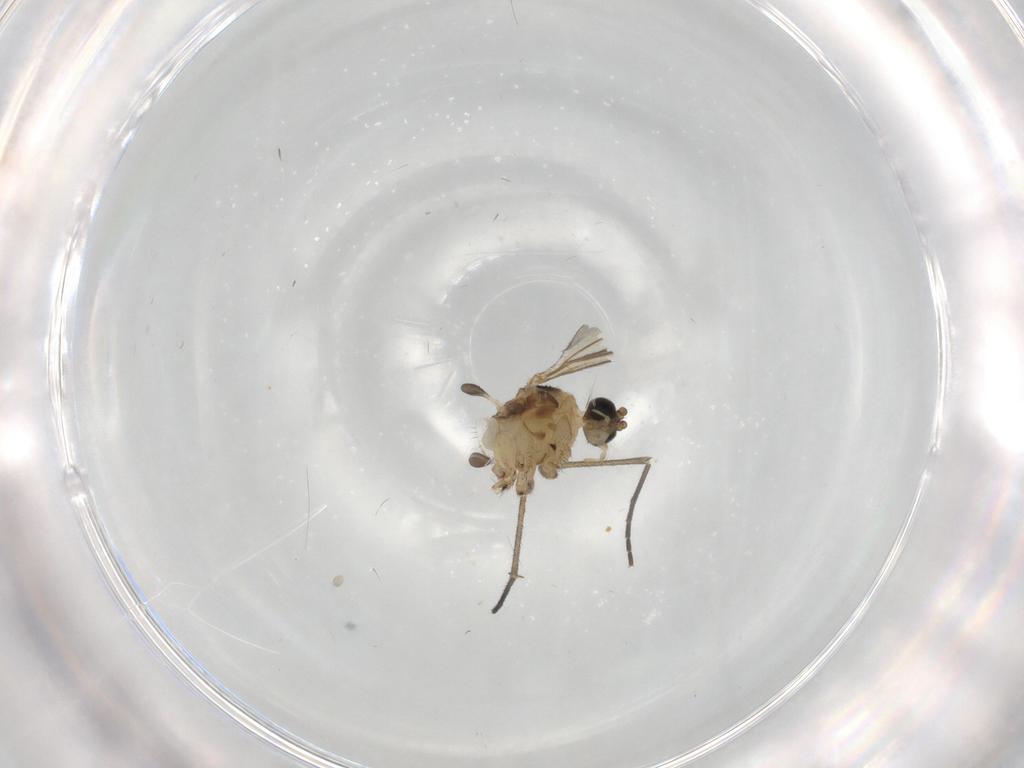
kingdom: Animalia
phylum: Arthropoda
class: Insecta
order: Diptera
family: Sciaridae
